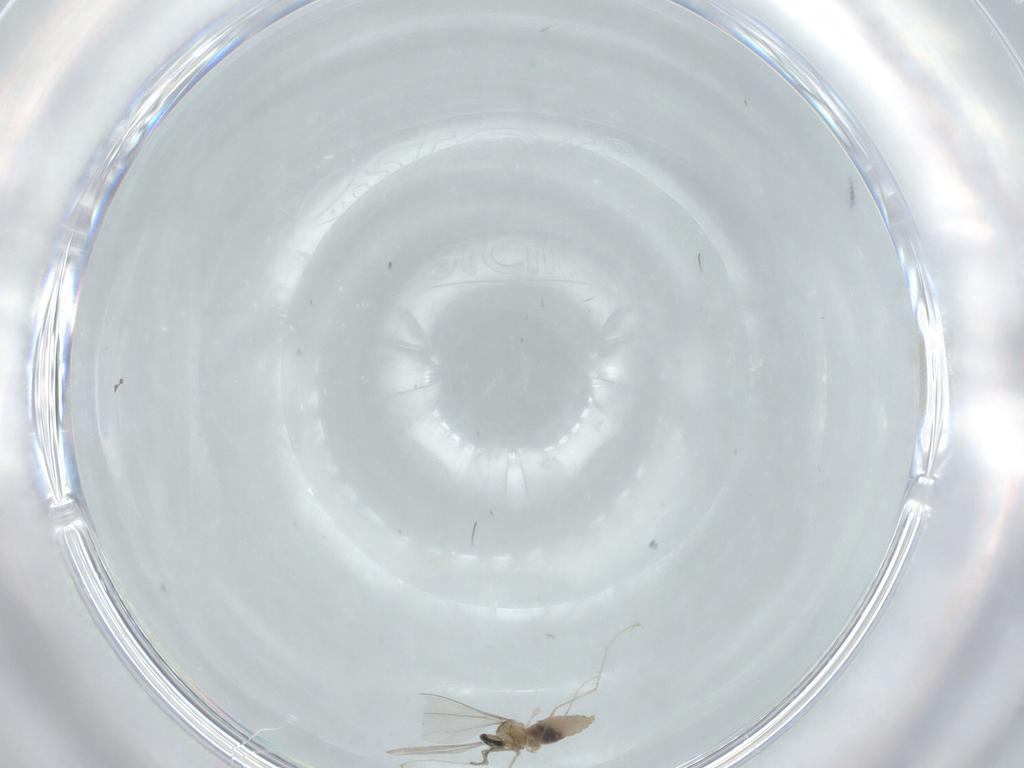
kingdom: Animalia
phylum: Arthropoda
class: Insecta
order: Diptera
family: Cecidomyiidae
